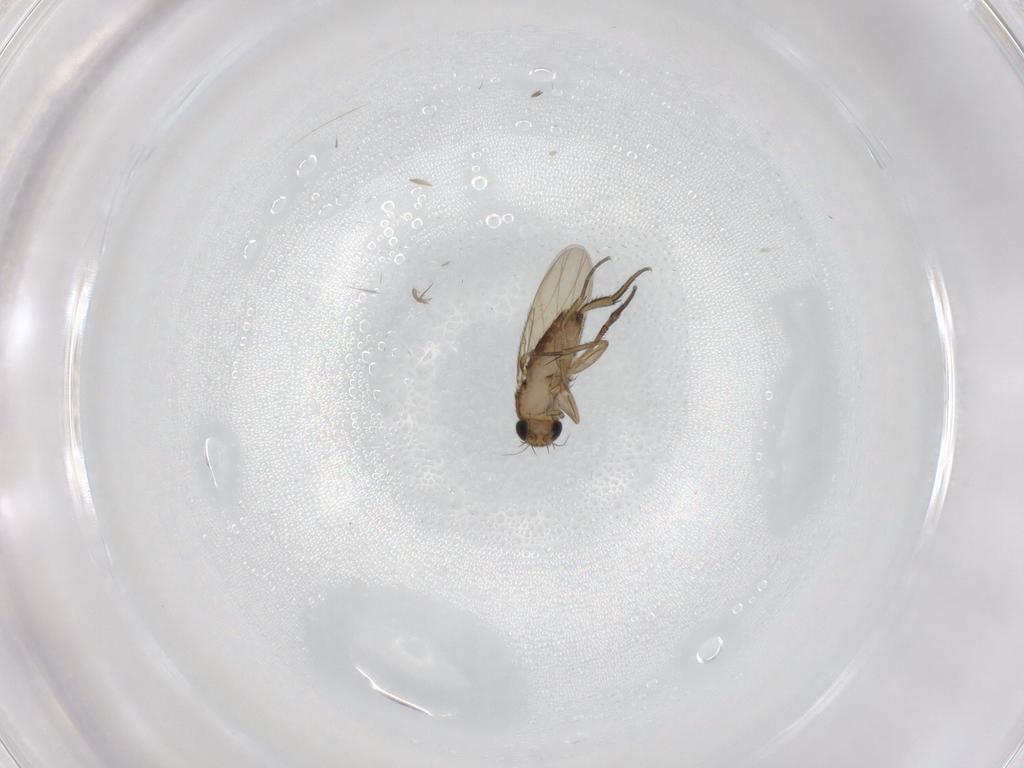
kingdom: Animalia
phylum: Arthropoda
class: Insecta
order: Diptera
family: Phoridae
